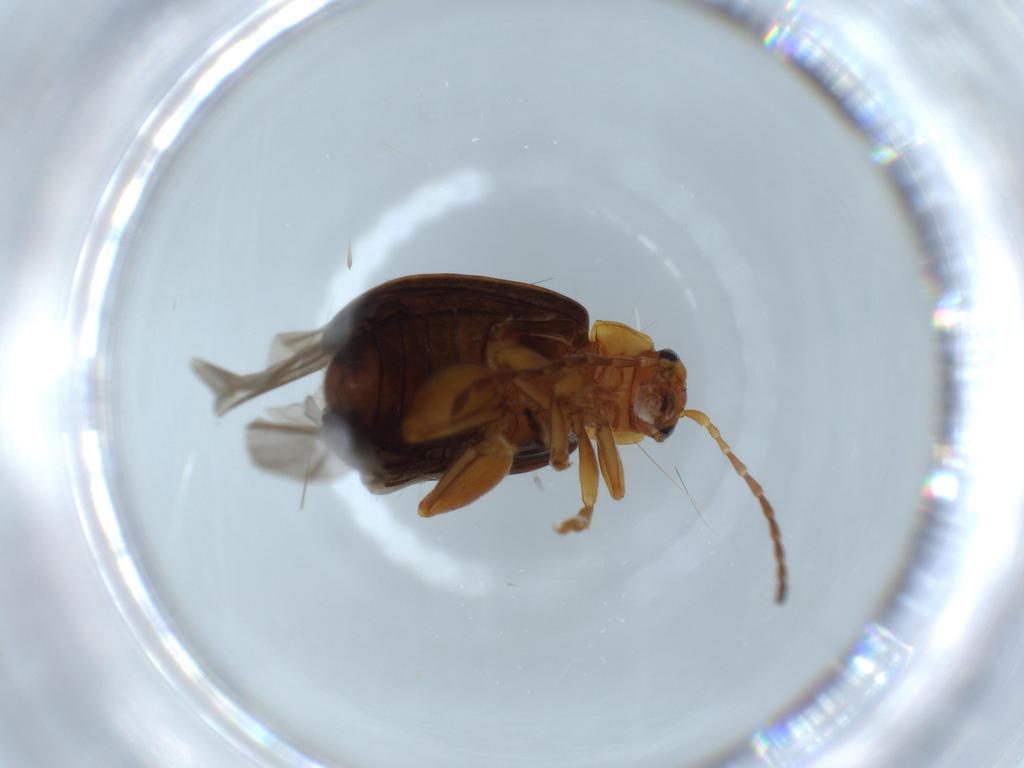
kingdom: Animalia
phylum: Arthropoda
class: Insecta
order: Coleoptera
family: Chrysomelidae
